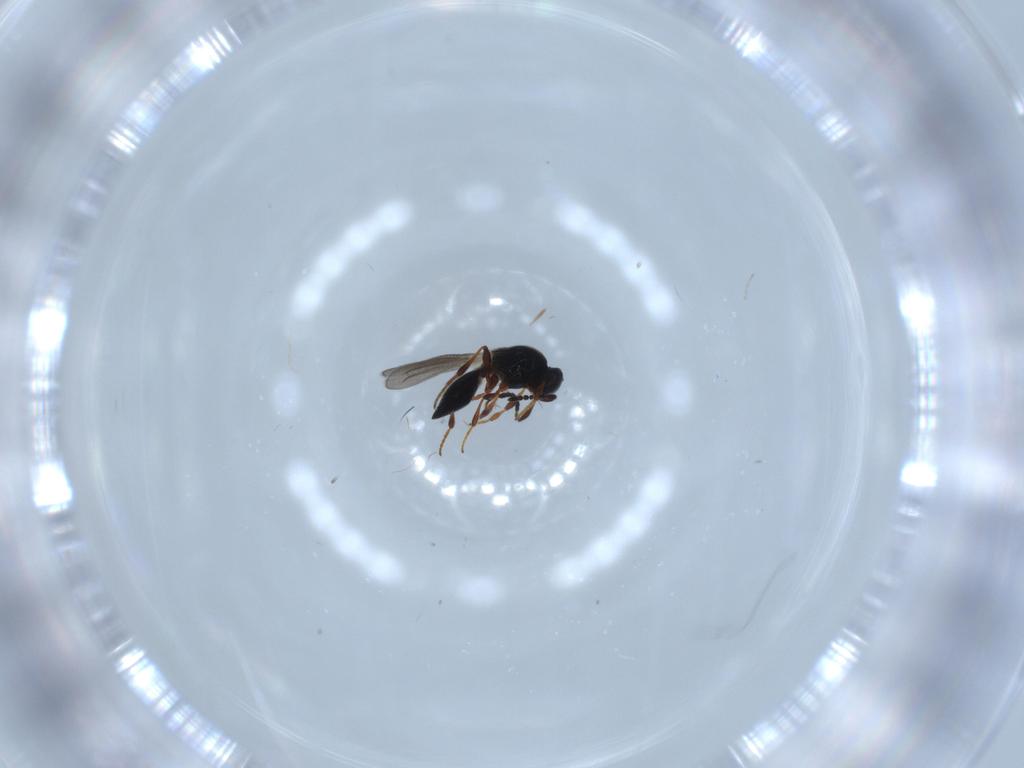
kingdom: Animalia
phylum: Arthropoda
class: Insecta
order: Hymenoptera
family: Platygastridae
